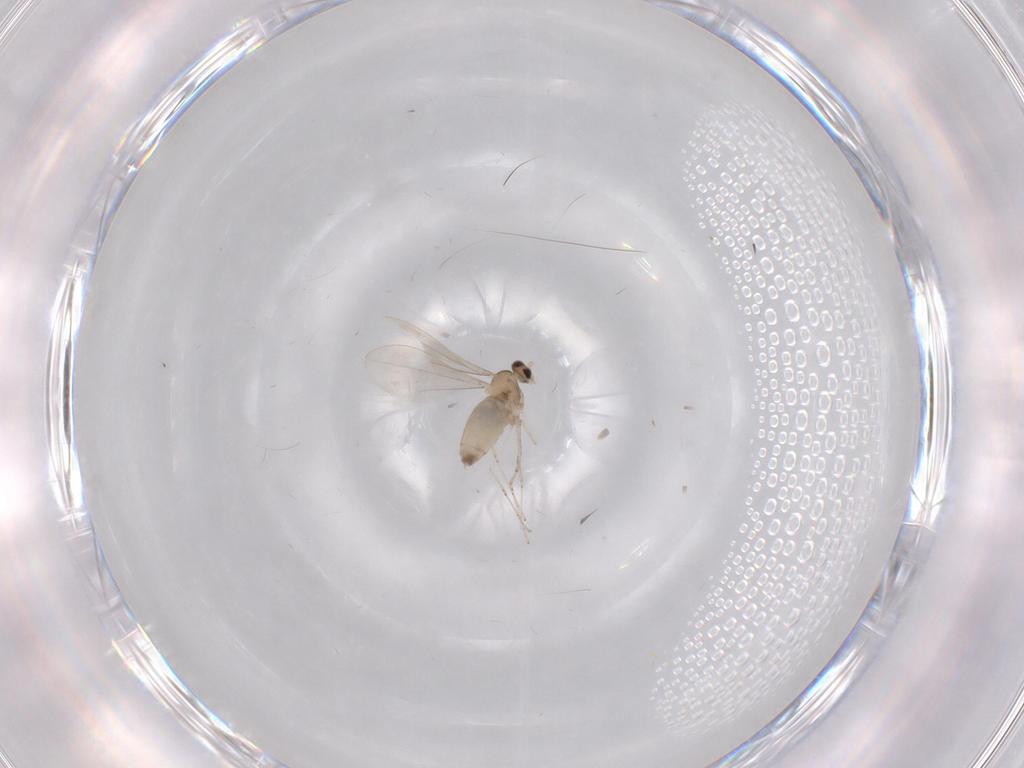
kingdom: Animalia
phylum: Arthropoda
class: Insecta
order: Diptera
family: Cecidomyiidae
